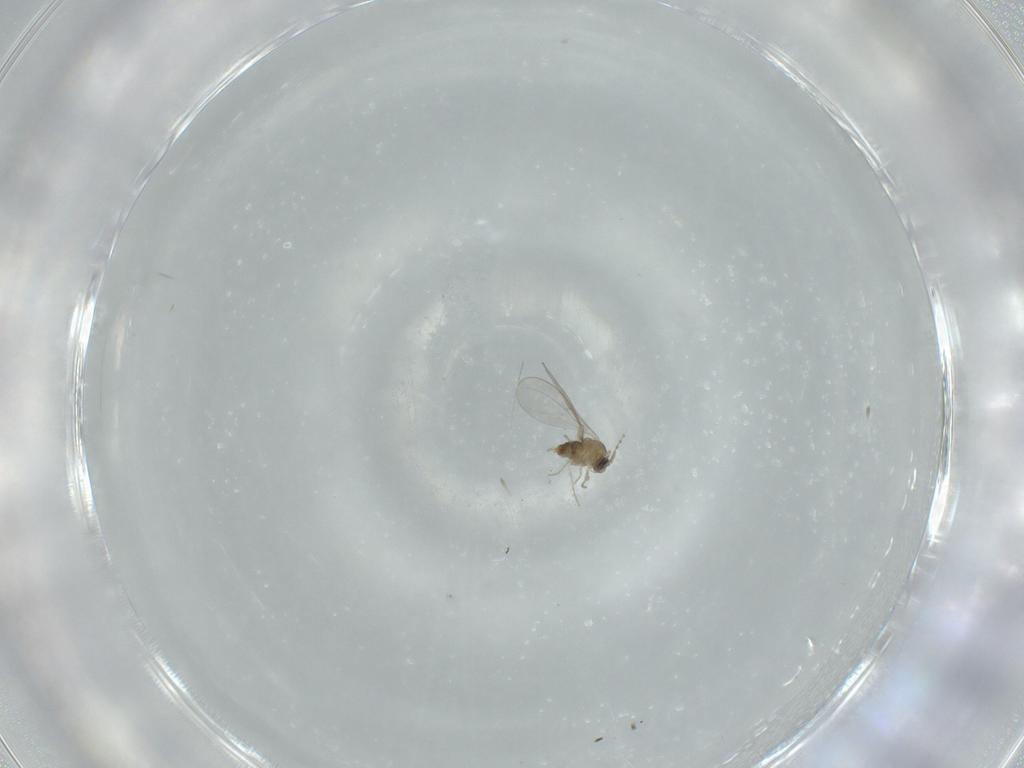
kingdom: Animalia
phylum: Arthropoda
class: Insecta
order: Diptera
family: Cecidomyiidae
